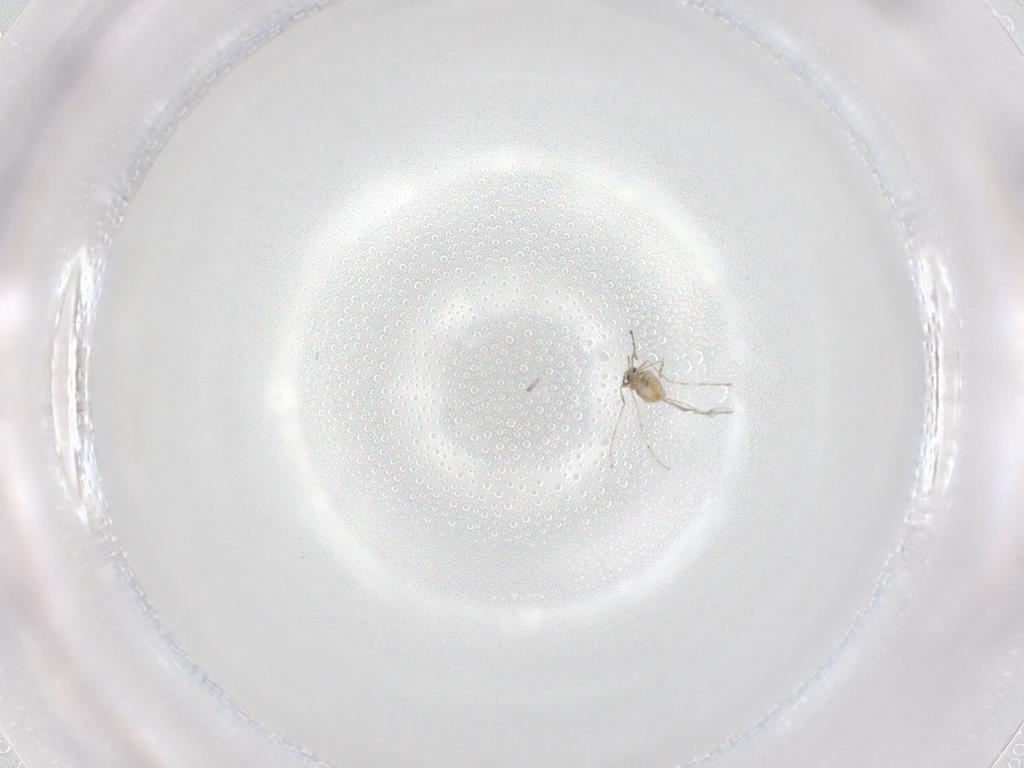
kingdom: Animalia
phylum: Arthropoda
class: Insecta
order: Diptera
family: Cecidomyiidae
